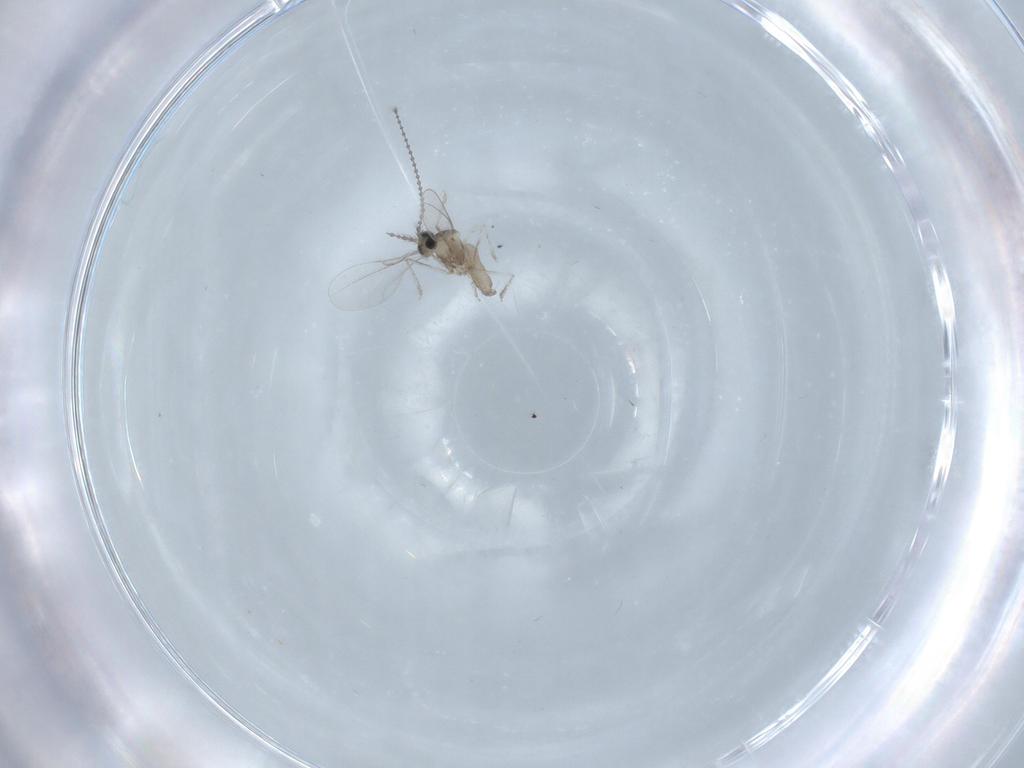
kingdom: Animalia
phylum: Arthropoda
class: Insecta
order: Diptera
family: Cecidomyiidae
